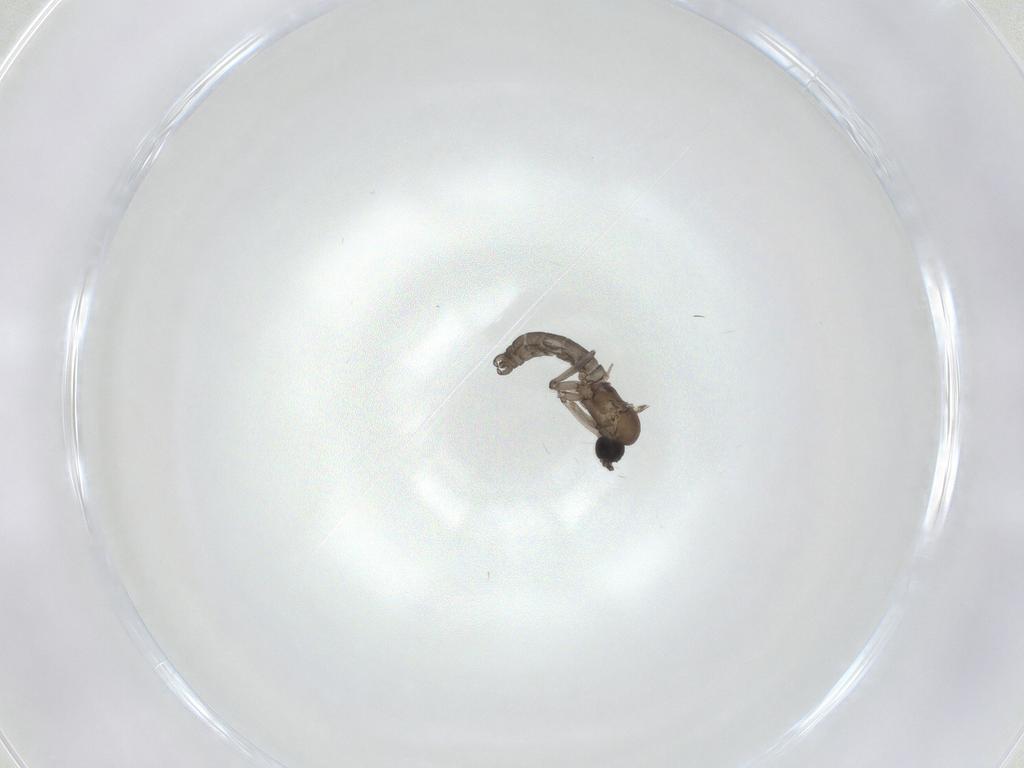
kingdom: Animalia
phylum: Arthropoda
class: Insecta
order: Diptera
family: Sciaridae
